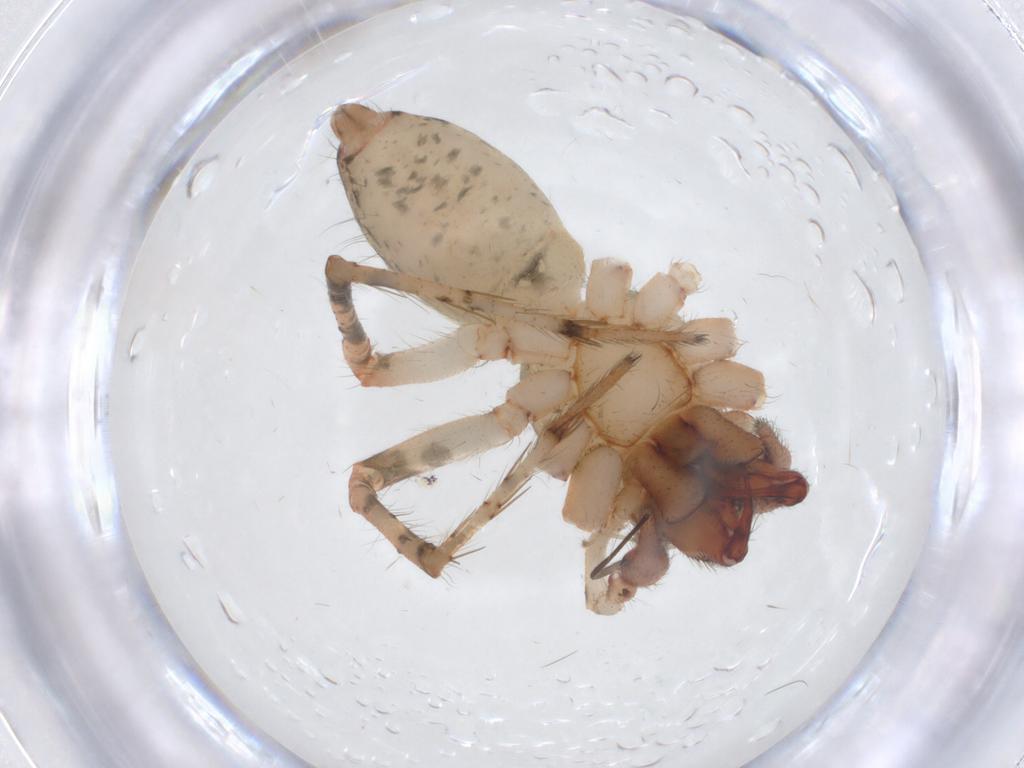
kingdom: Animalia
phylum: Arthropoda
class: Arachnida
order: Araneae
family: Dictynidae
